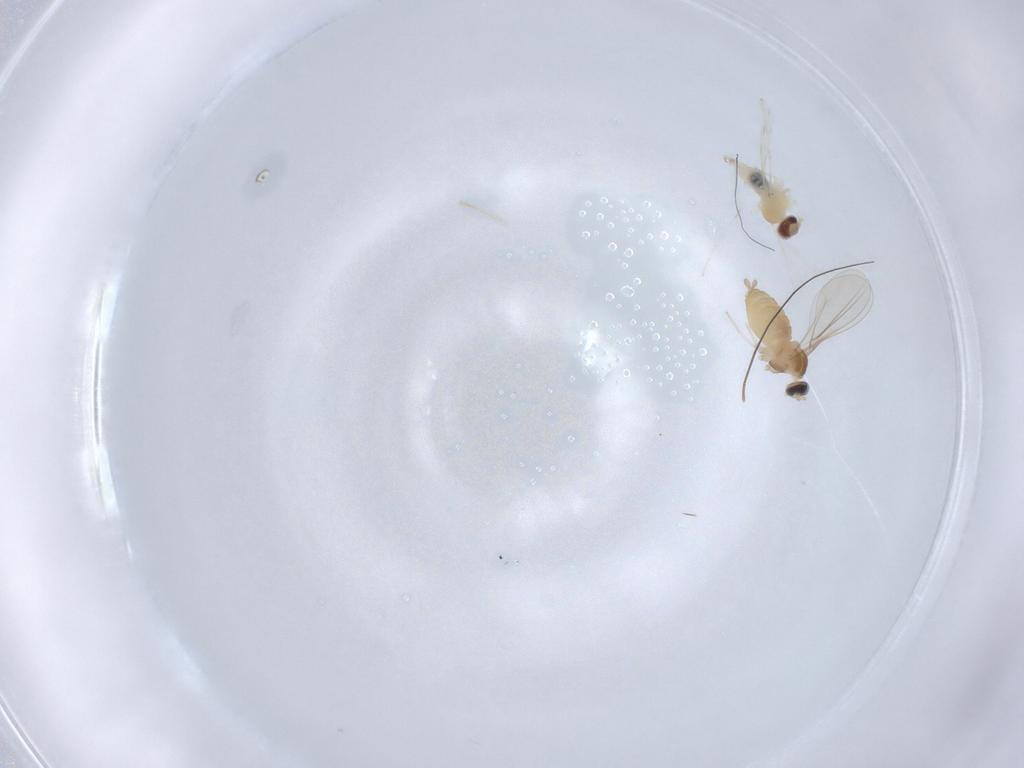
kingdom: Animalia
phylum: Arthropoda
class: Insecta
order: Diptera
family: Cecidomyiidae
